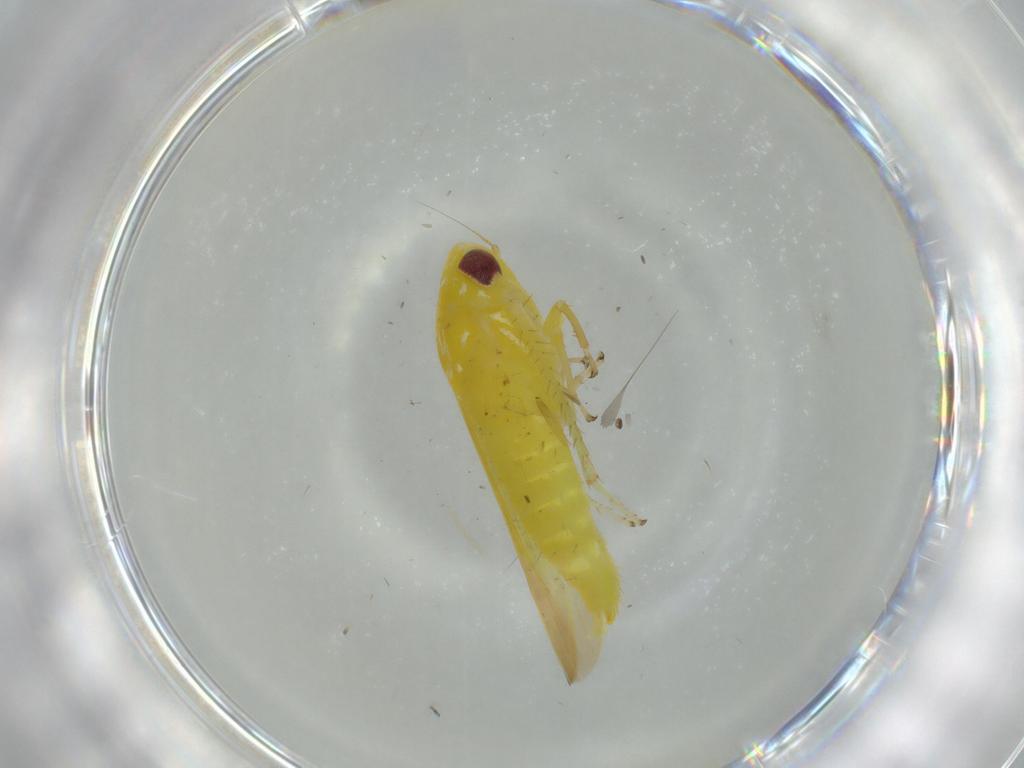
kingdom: Animalia
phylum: Arthropoda
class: Insecta
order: Hemiptera
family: Cicadellidae
